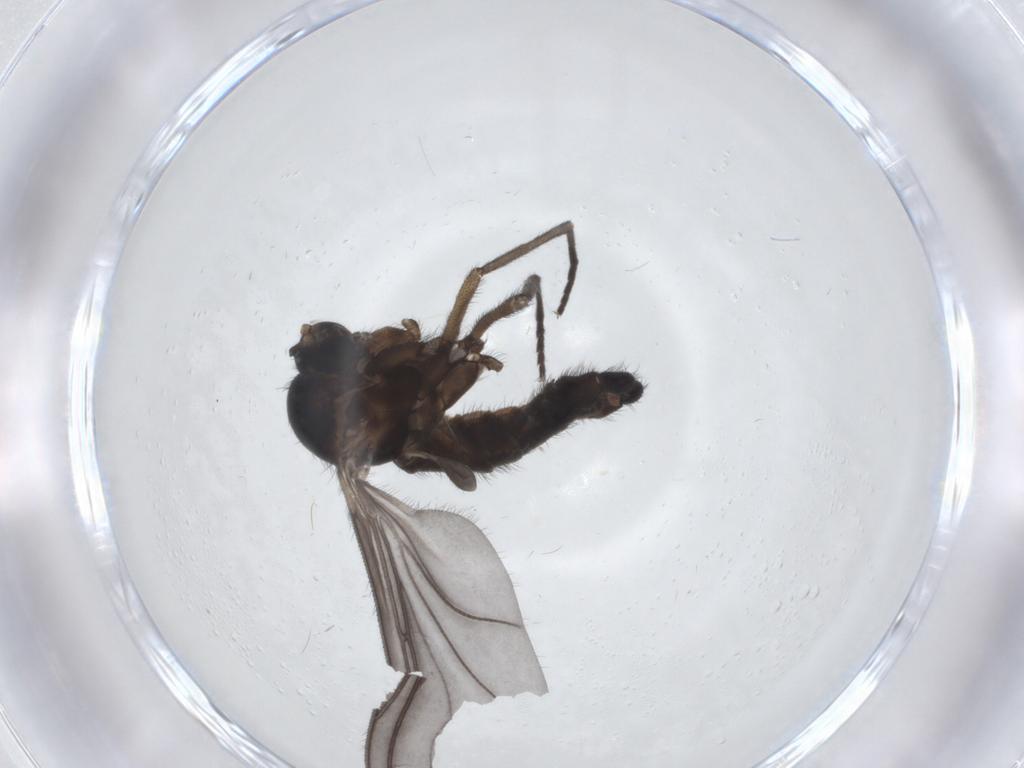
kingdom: Animalia
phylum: Arthropoda
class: Insecta
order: Diptera
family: Sciaridae
